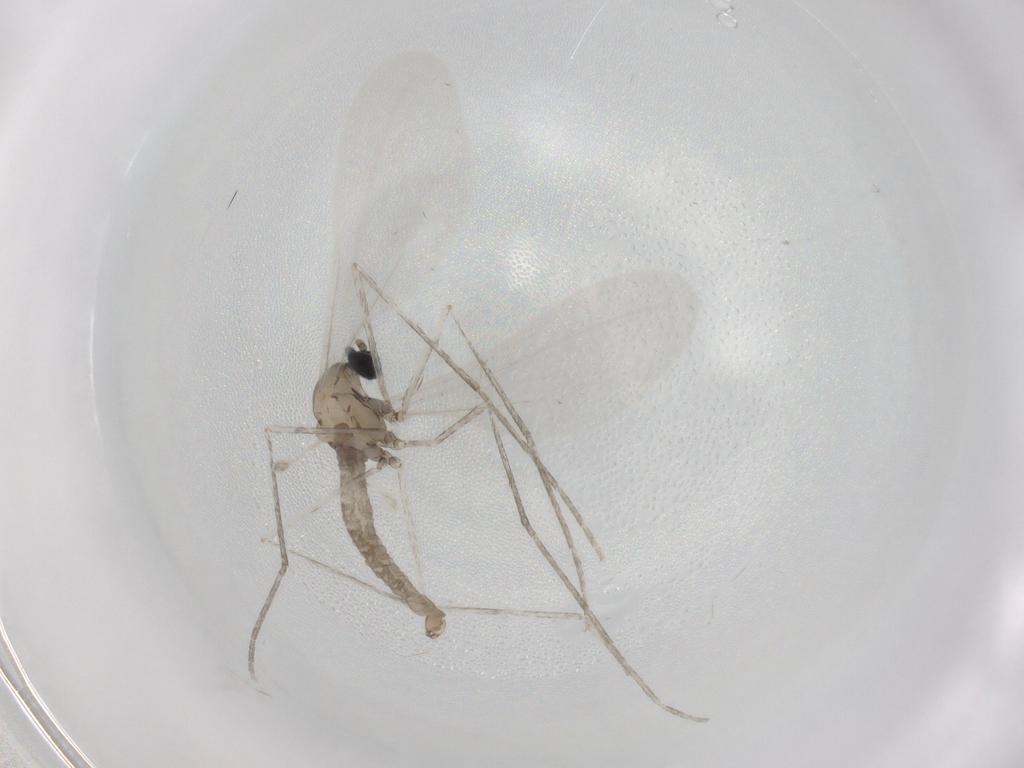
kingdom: Animalia
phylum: Arthropoda
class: Insecta
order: Diptera
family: Cecidomyiidae
